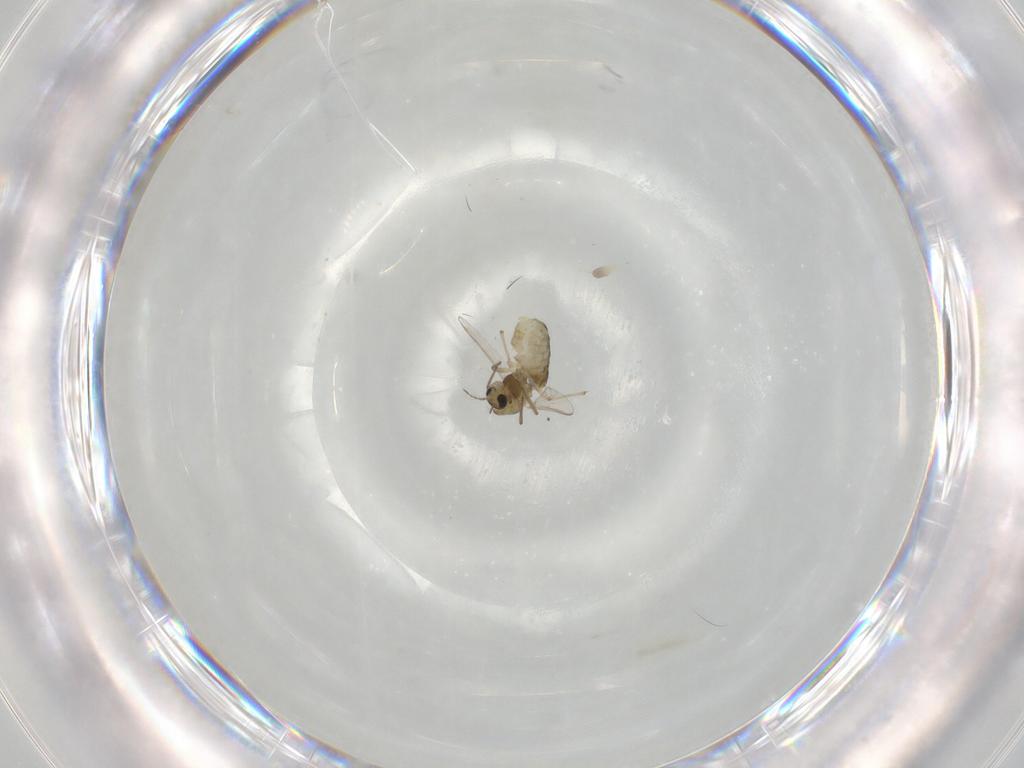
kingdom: Animalia
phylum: Arthropoda
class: Insecta
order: Diptera
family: Chironomidae
